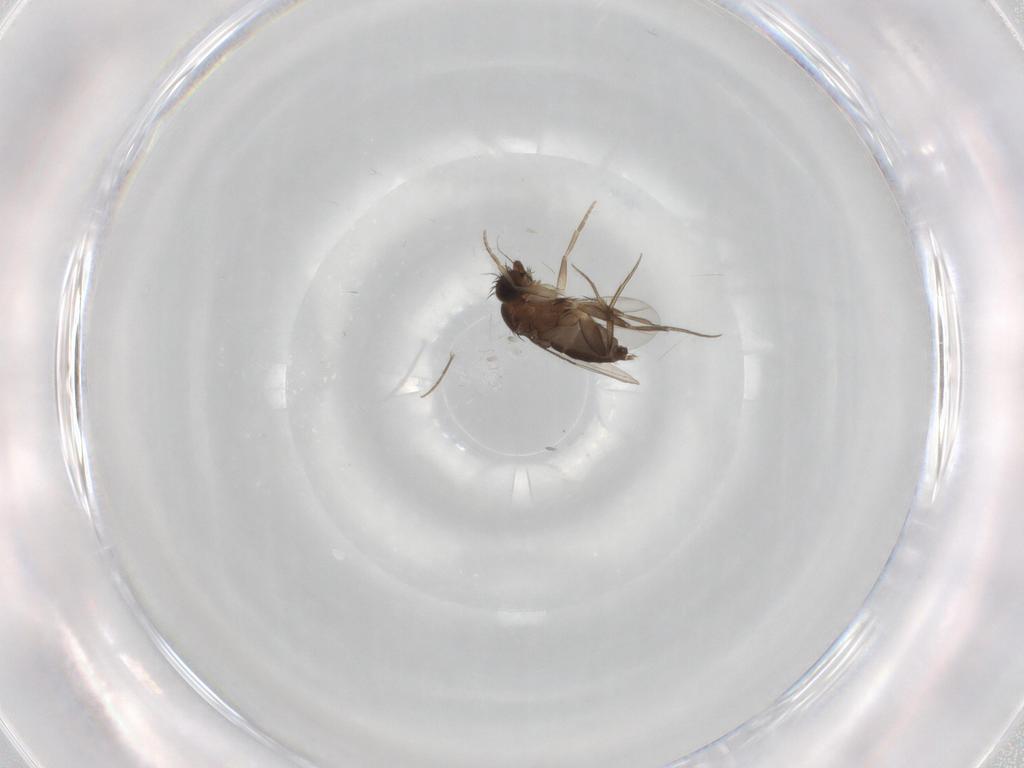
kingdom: Animalia
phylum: Arthropoda
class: Insecta
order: Diptera
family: Phoridae
